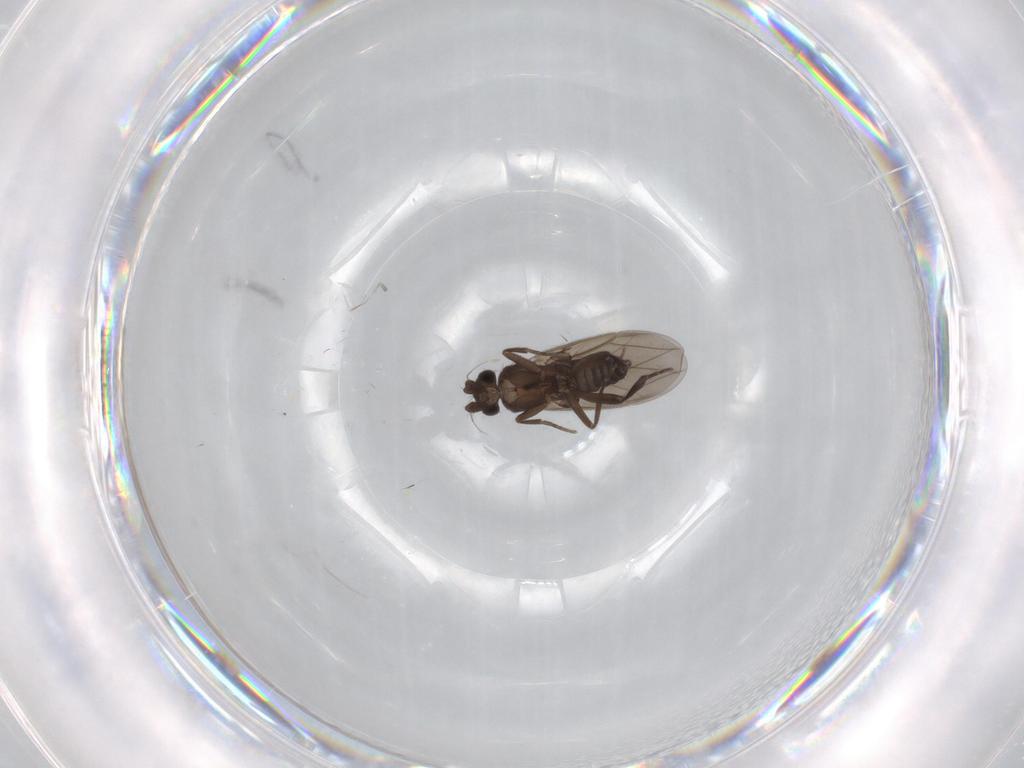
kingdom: Animalia
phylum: Arthropoda
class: Insecta
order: Diptera
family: Phoridae
